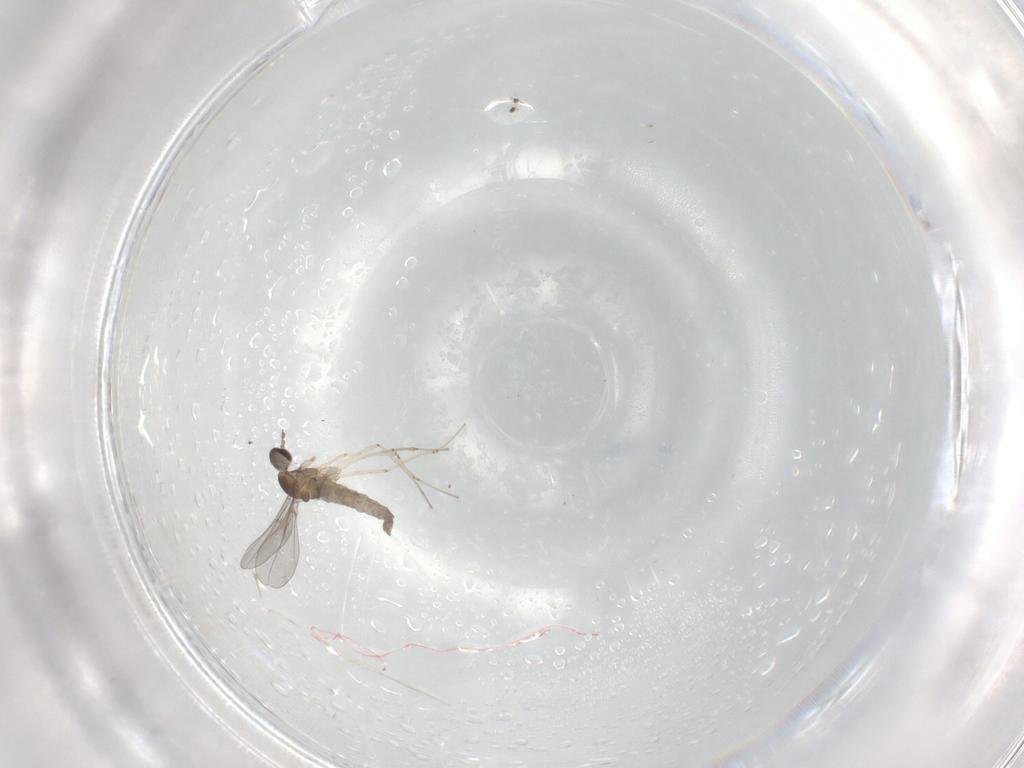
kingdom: Animalia
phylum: Arthropoda
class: Insecta
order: Diptera
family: Cecidomyiidae
